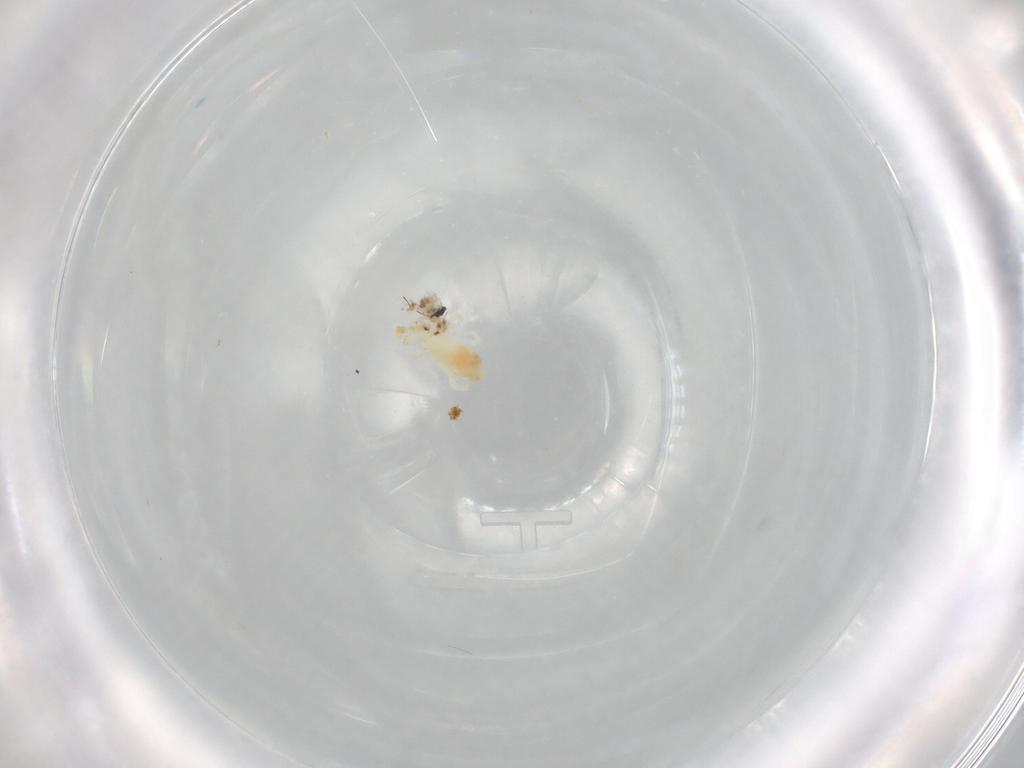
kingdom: Animalia
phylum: Arthropoda
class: Arachnida
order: Trombidiformes
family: Rhagidiidae
